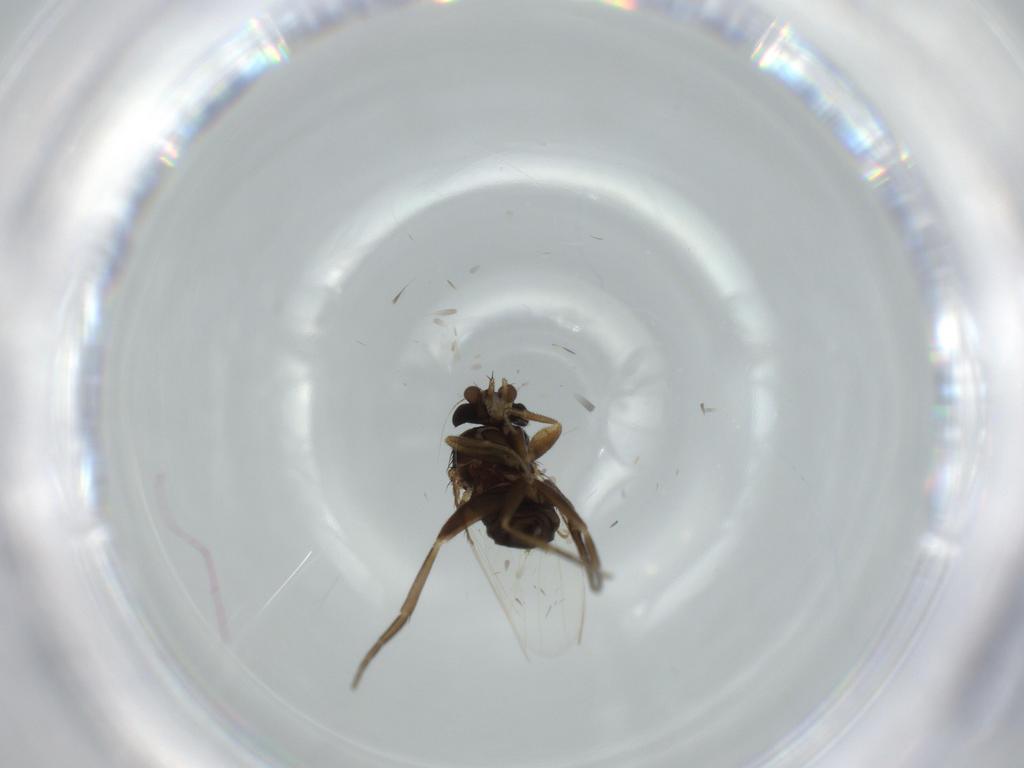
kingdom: Animalia
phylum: Arthropoda
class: Insecta
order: Diptera
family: Phoridae
